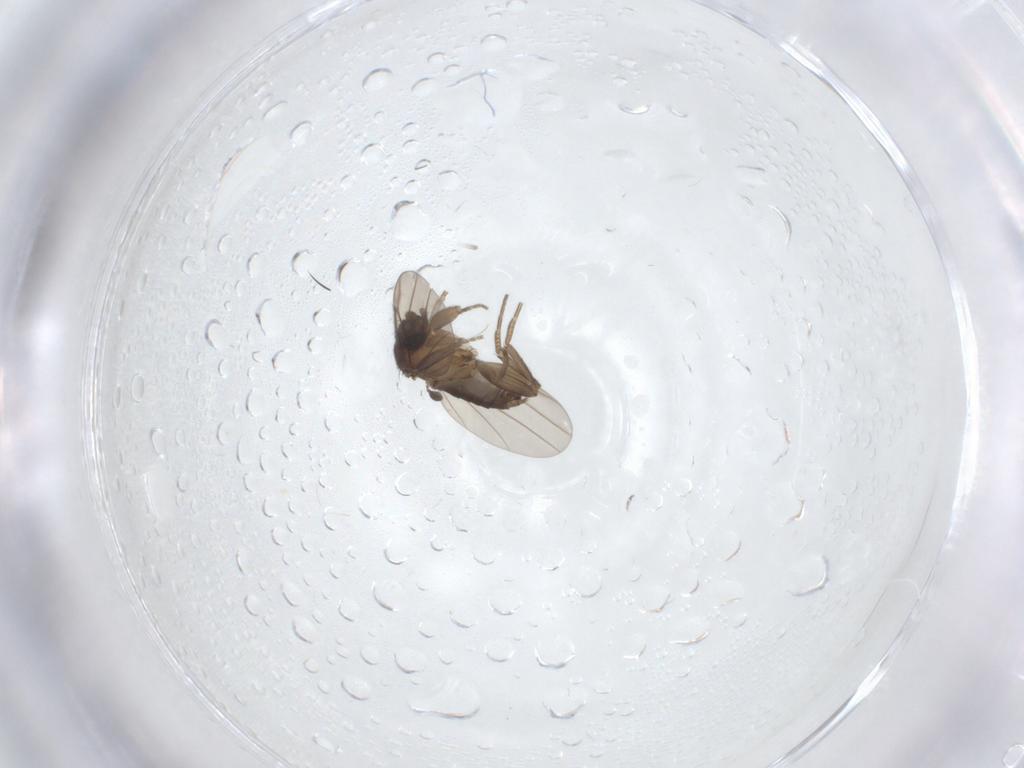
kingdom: Animalia
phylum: Arthropoda
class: Insecta
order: Diptera
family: Phoridae
